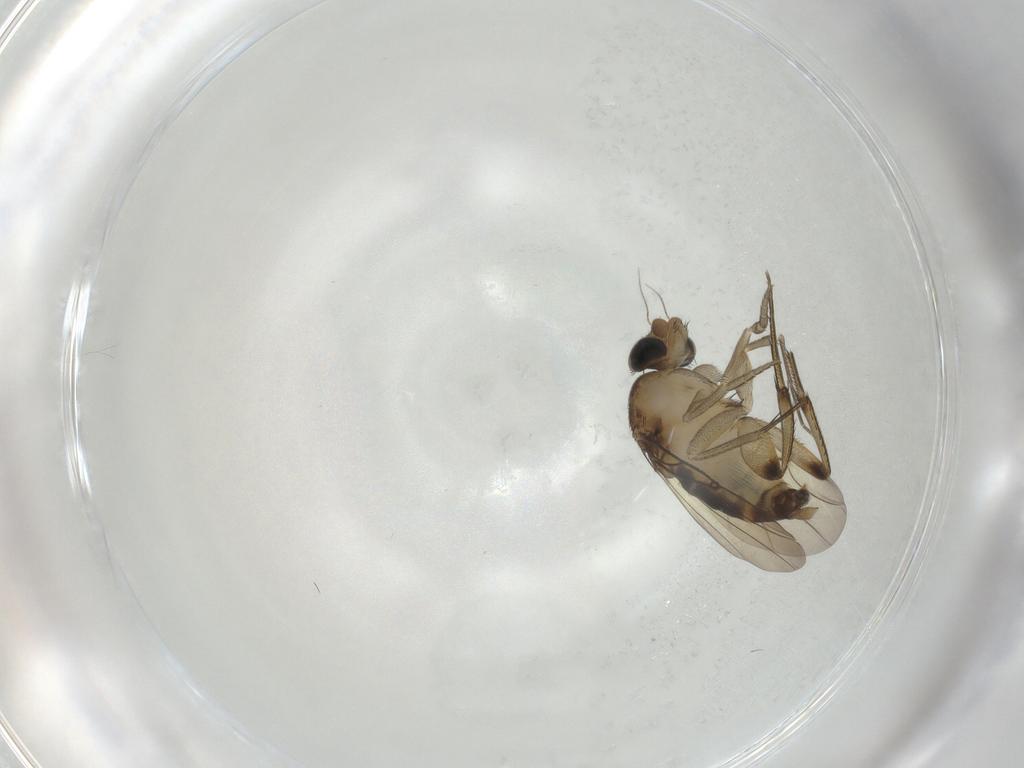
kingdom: Animalia
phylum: Arthropoda
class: Insecta
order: Diptera
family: Phoridae
